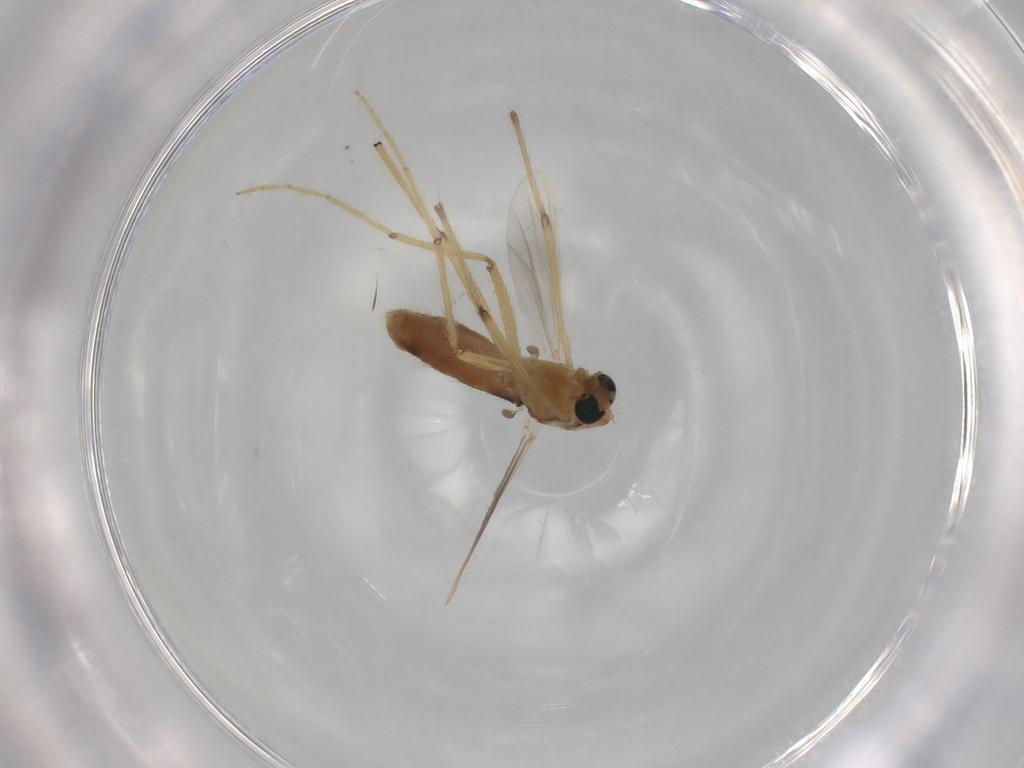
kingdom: Animalia
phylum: Arthropoda
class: Insecta
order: Diptera
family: Chironomidae
